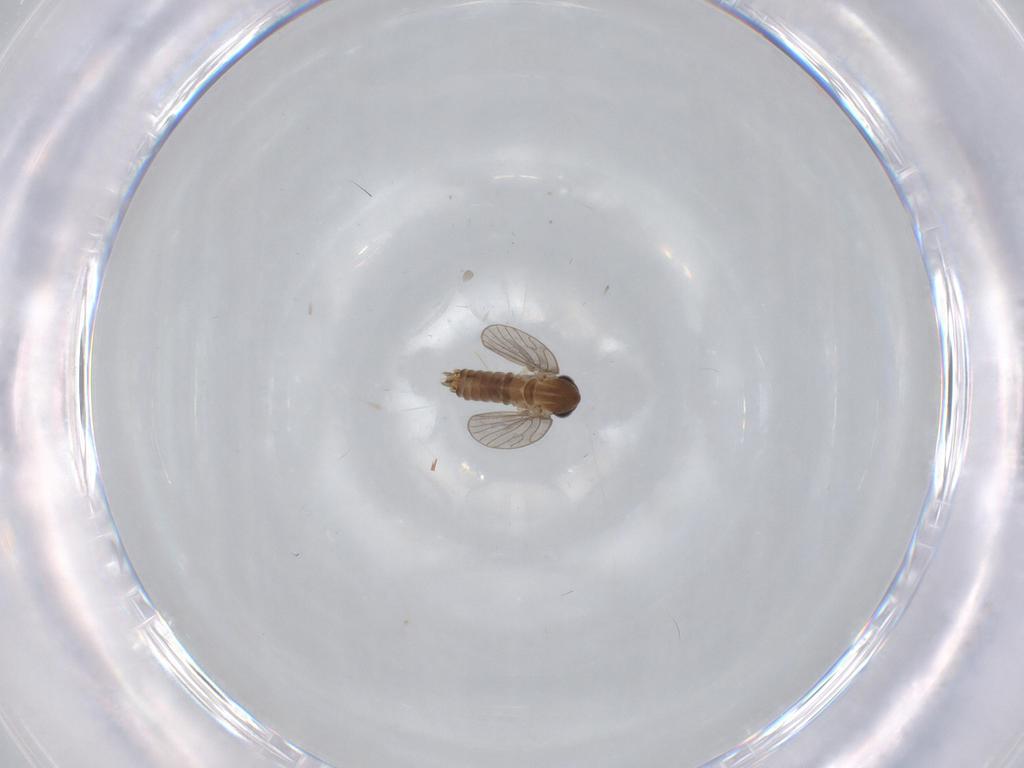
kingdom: Animalia
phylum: Arthropoda
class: Insecta
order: Diptera
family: Sciaridae
